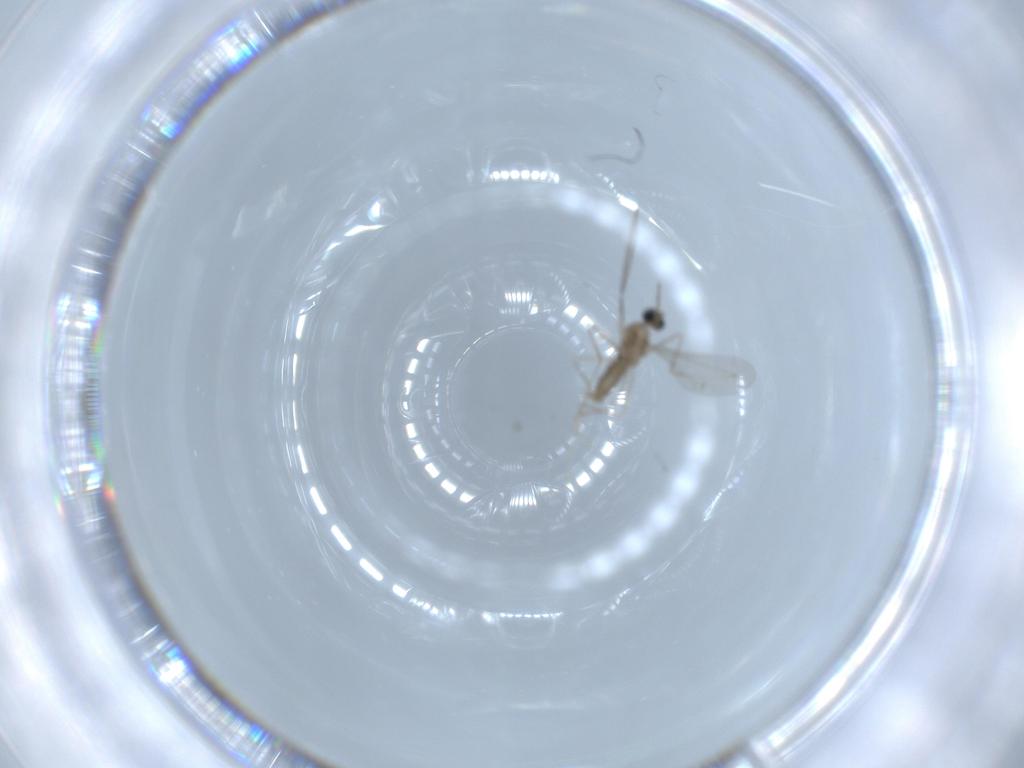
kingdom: Animalia
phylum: Arthropoda
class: Insecta
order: Diptera
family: Cecidomyiidae
